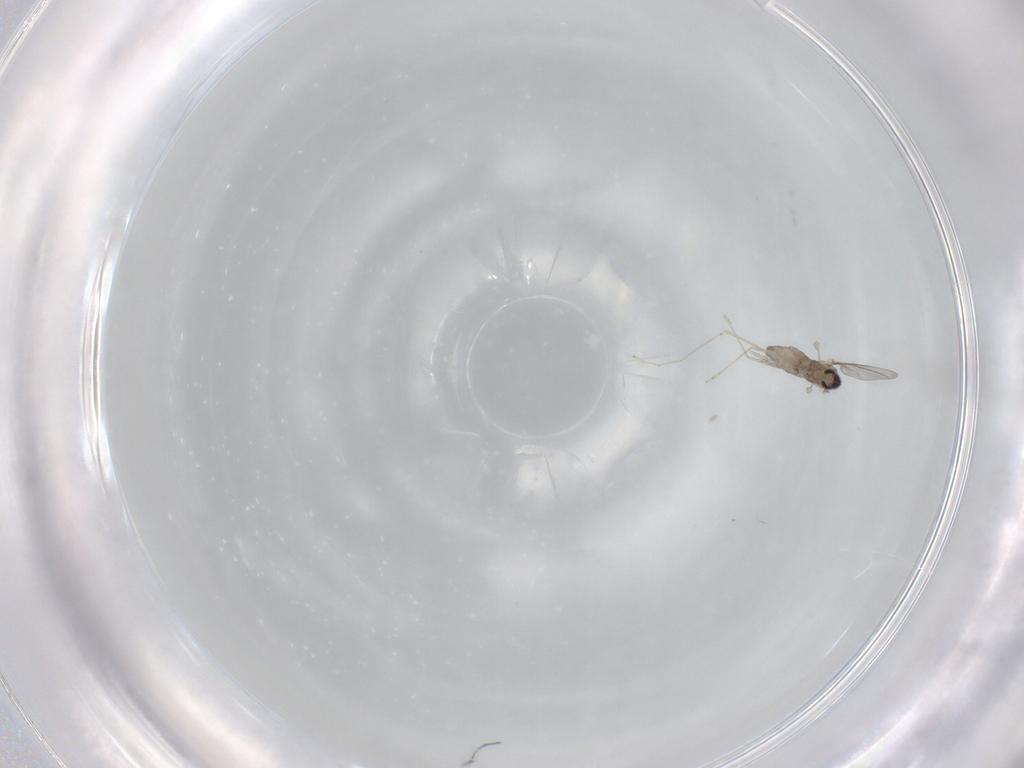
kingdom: Animalia
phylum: Arthropoda
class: Insecta
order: Diptera
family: Cecidomyiidae
